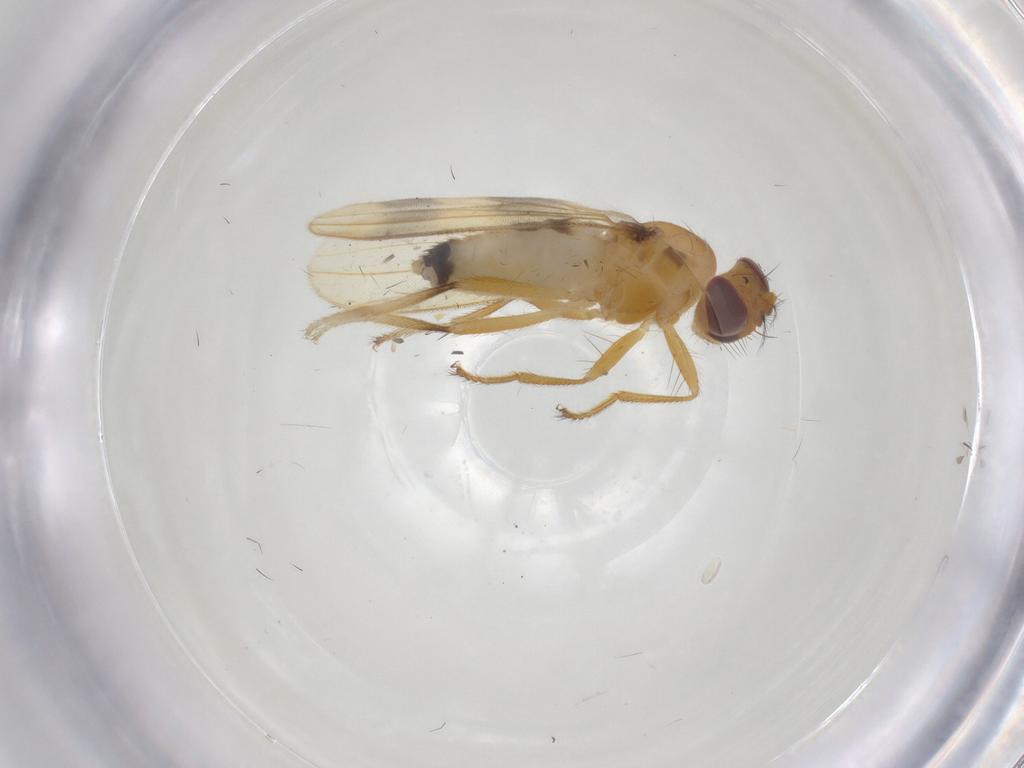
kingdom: Animalia
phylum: Arthropoda
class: Insecta
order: Diptera
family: Periscelididae
